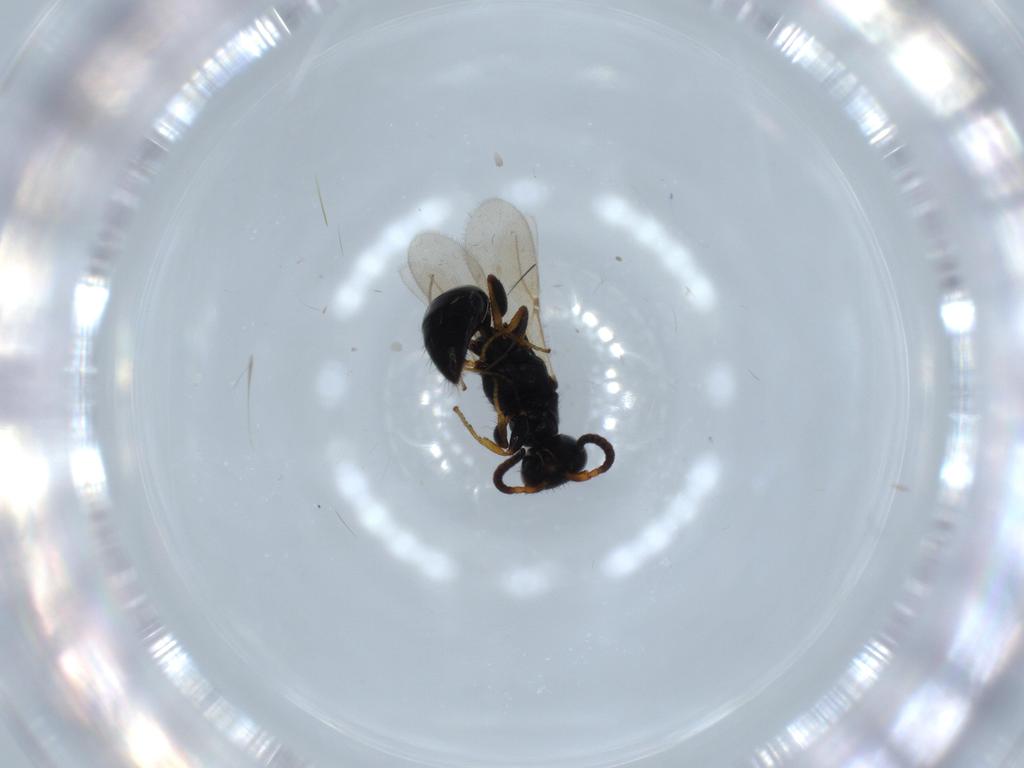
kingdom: Animalia
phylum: Arthropoda
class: Insecta
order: Hymenoptera
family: Bethylidae
